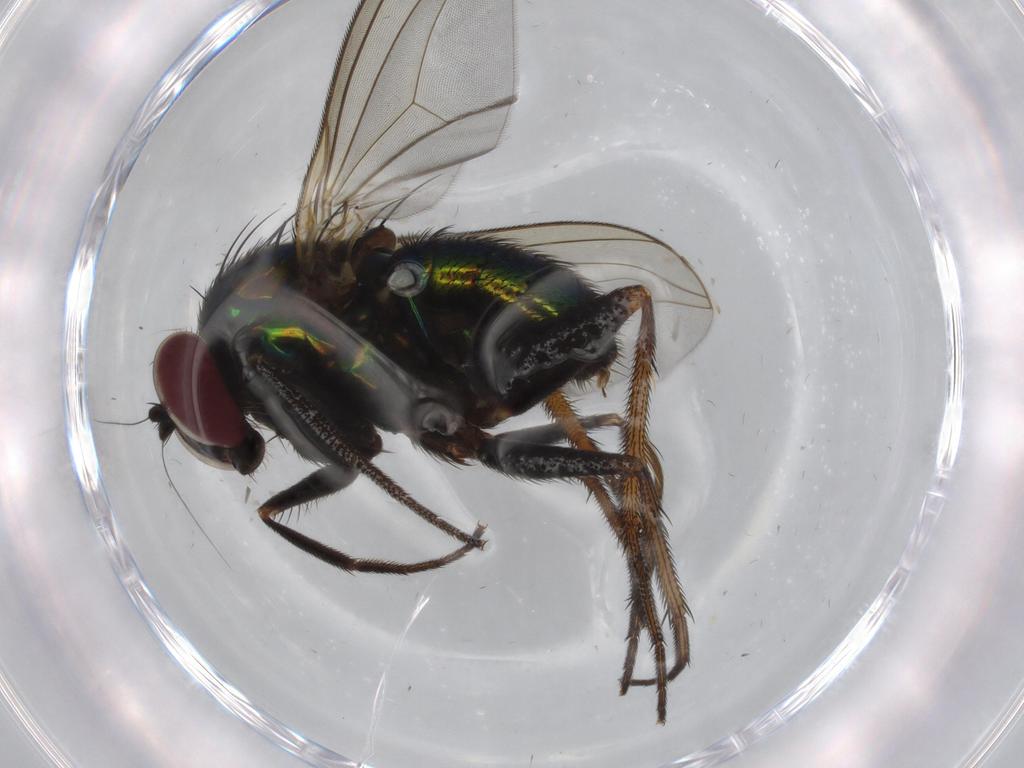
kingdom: Animalia
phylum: Arthropoda
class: Insecta
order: Diptera
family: Dolichopodidae
